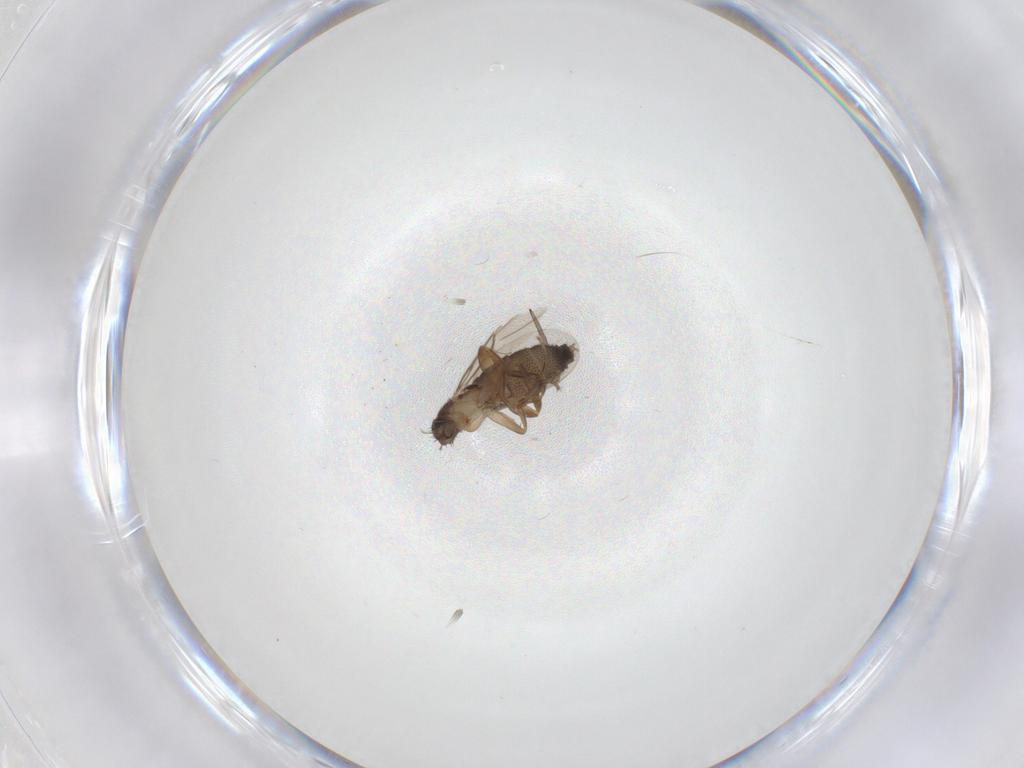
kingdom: Animalia
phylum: Arthropoda
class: Insecta
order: Diptera
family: Phoridae
